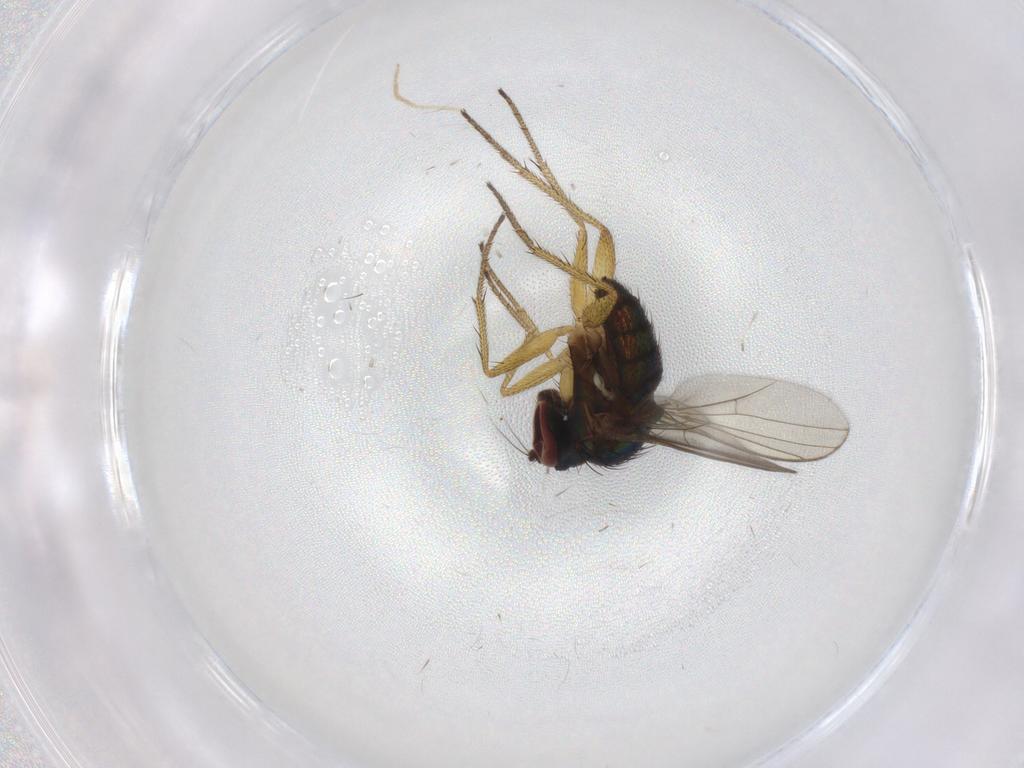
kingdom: Animalia
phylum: Arthropoda
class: Insecta
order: Diptera
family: Chironomidae
